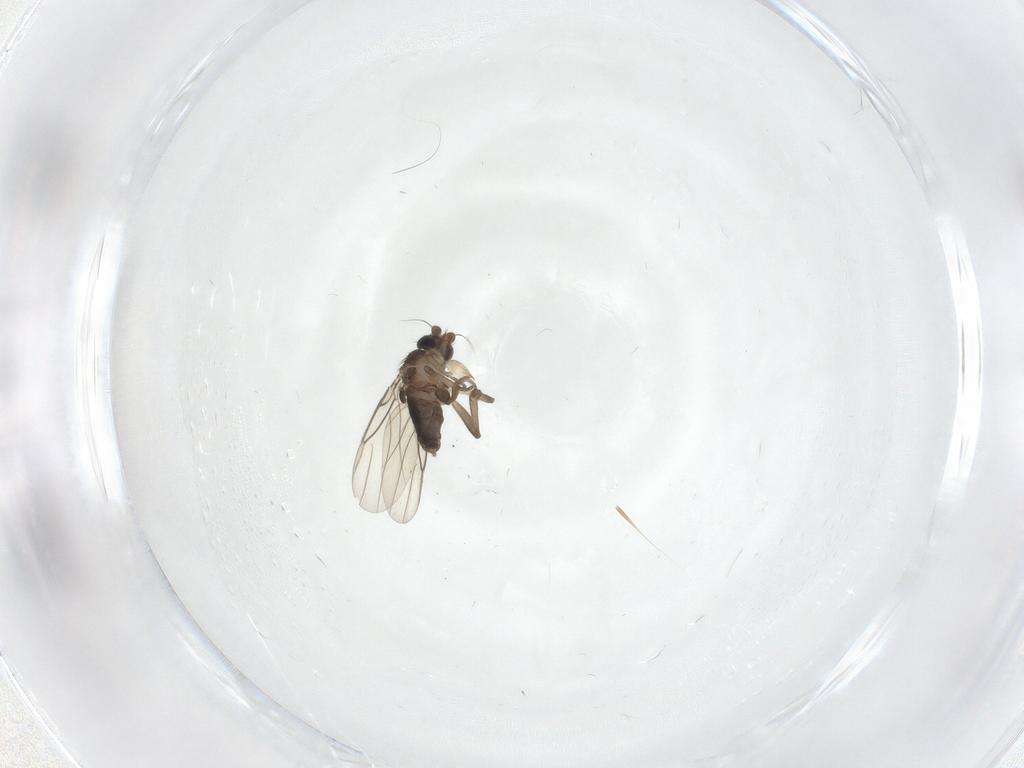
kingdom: Animalia
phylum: Arthropoda
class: Insecta
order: Diptera
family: Phoridae
